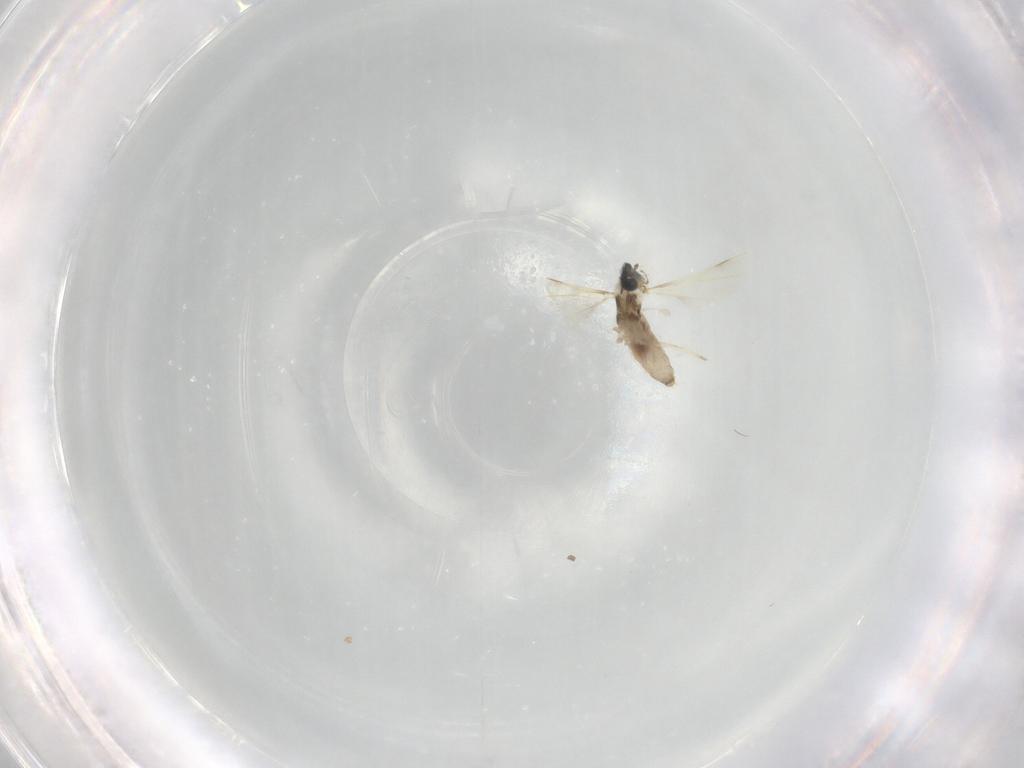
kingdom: Animalia
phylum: Arthropoda
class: Insecta
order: Diptera
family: Cecidomyiidae
